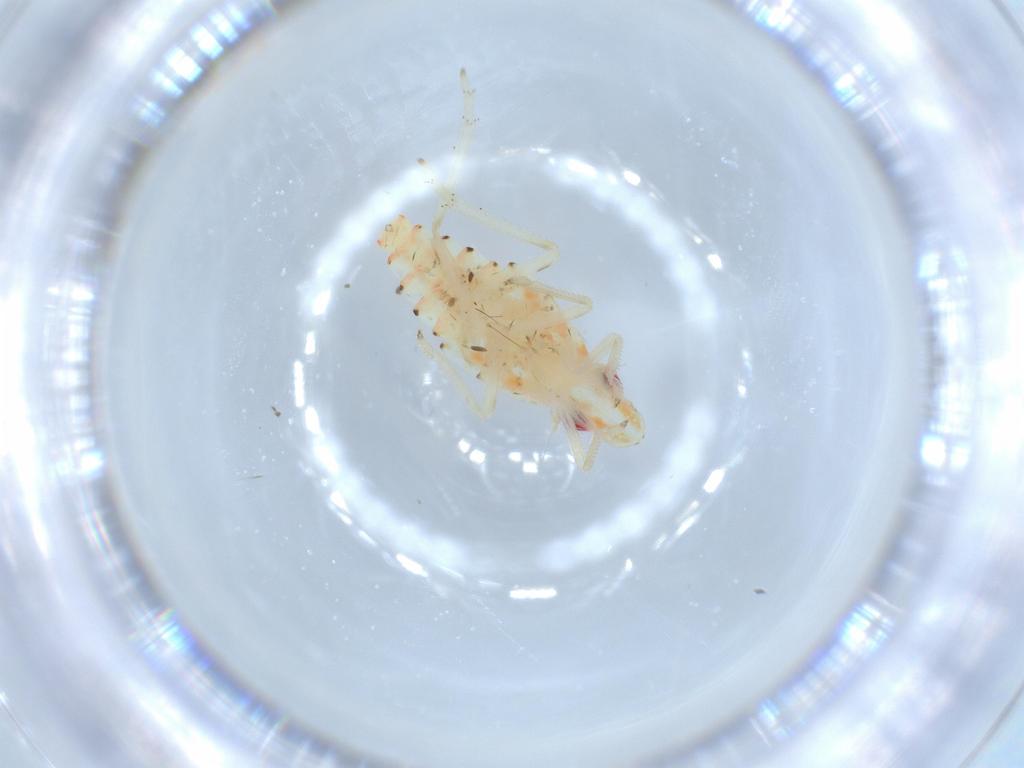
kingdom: Animalia
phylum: Arthropoda
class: Insecta
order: Hemiptera
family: Tropiduchidae
